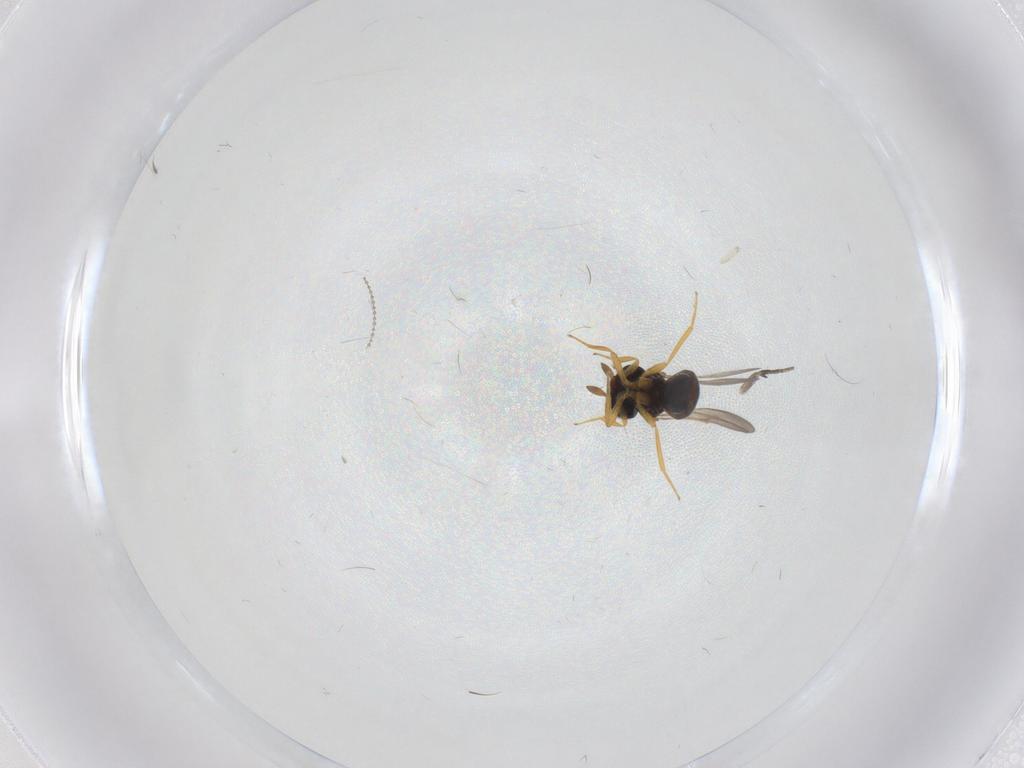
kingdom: Animalia
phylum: Arthropoda
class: Insecta
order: Hymenoptera
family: Scelionidae
